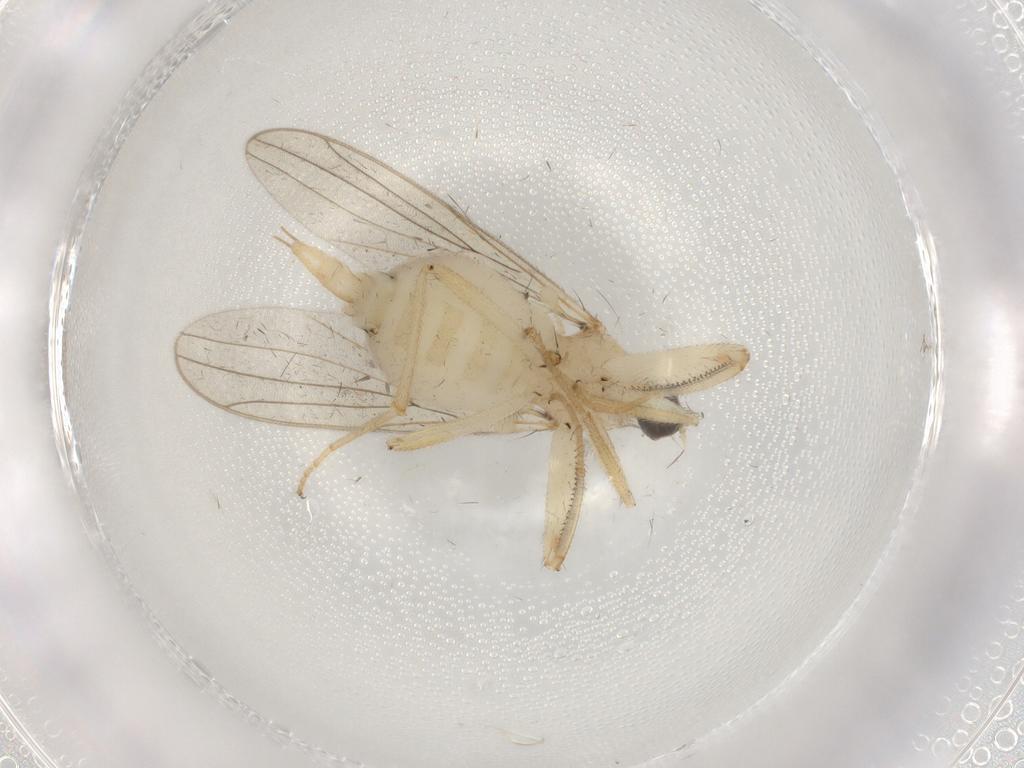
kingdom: Animalia
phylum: Arthropoda
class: Insecta
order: Diptera
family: Hybotidae
